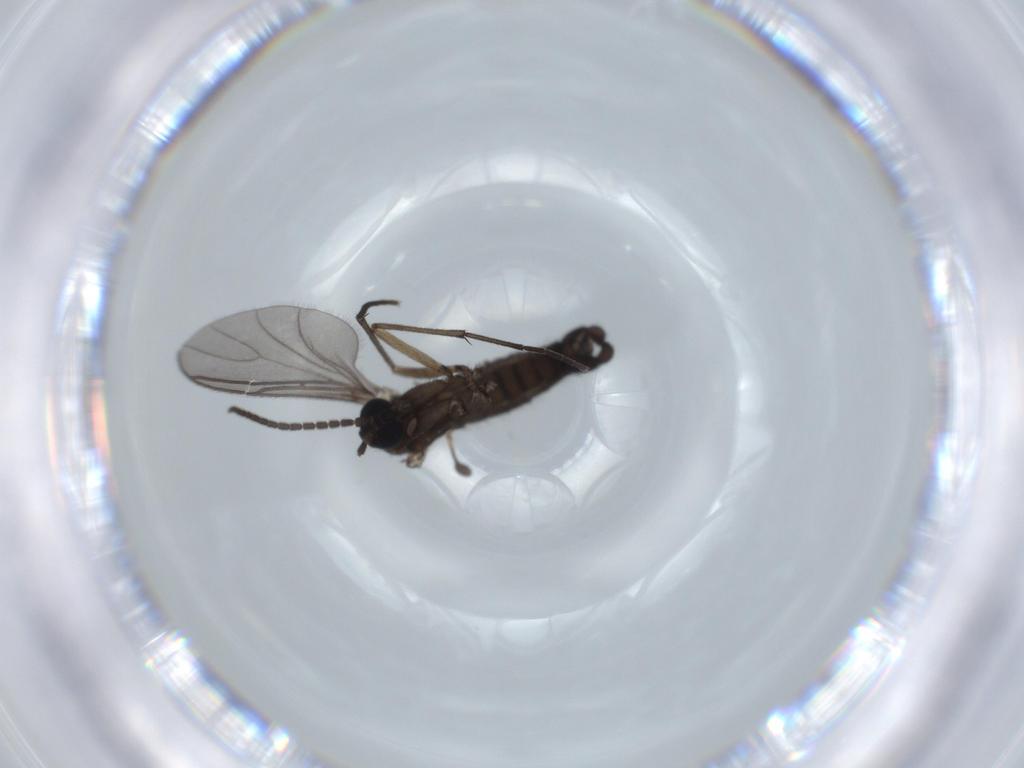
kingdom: Animalia
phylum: Arthropoda
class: Insecta
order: Diptera
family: Sciaridae
